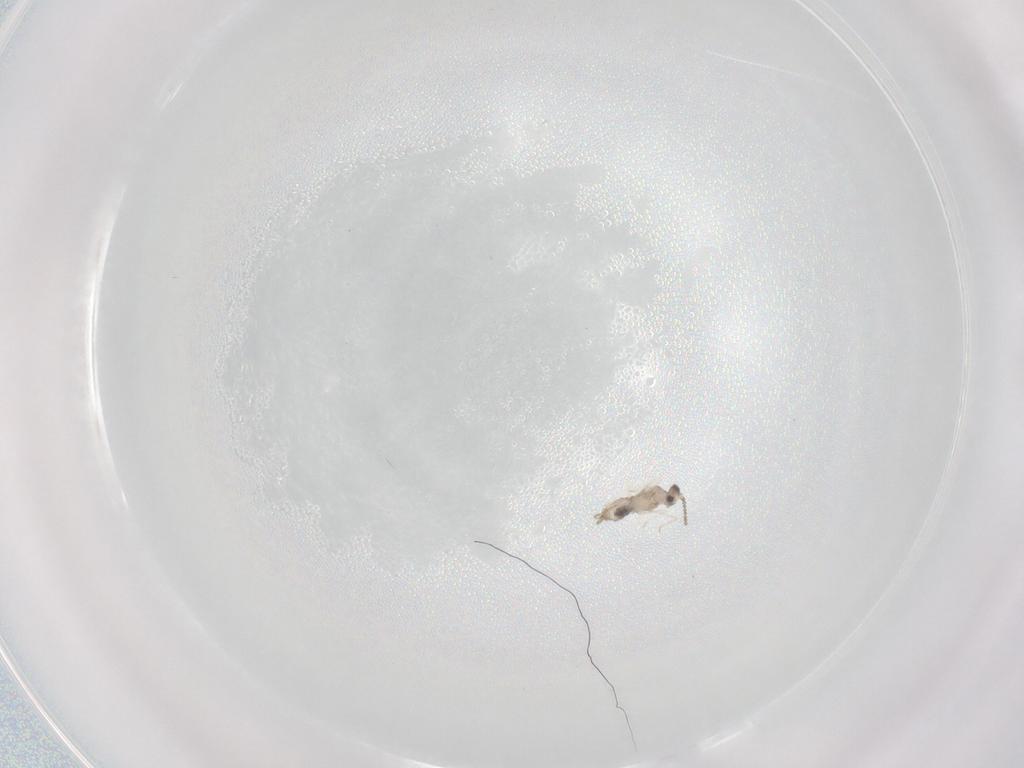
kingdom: Animalia
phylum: Arthropoda
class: Insecta
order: Diptera
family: Cecidomyiidae
